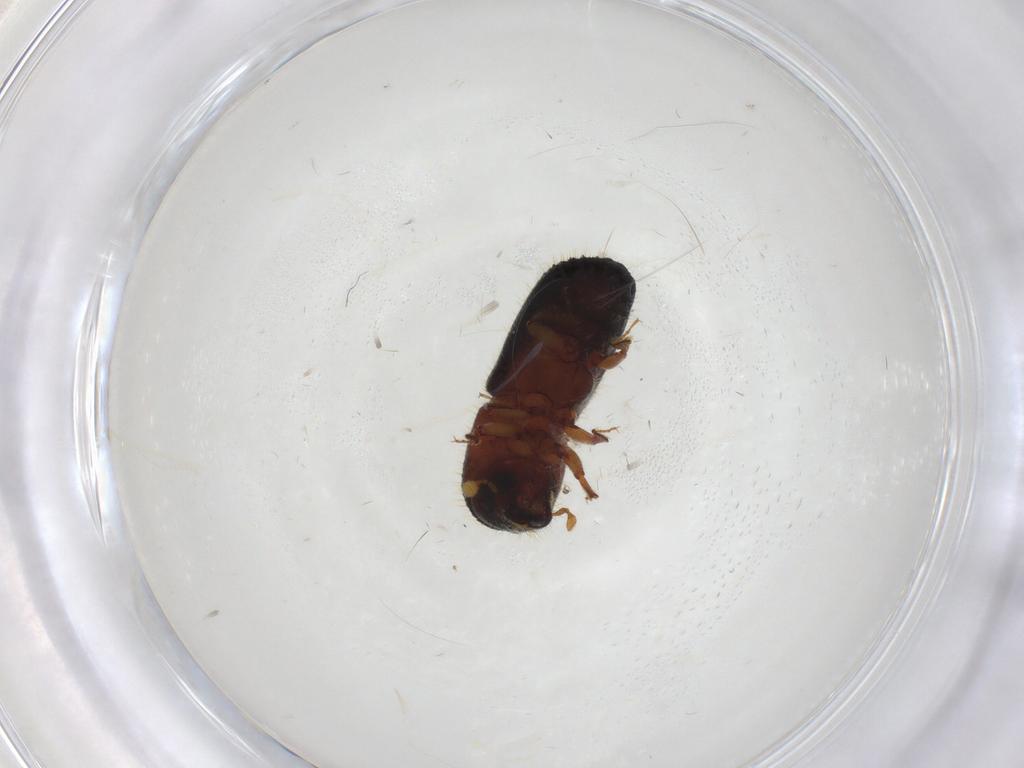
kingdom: Animalia
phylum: Arthropoda
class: Insecta
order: Coleoptera
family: Curculionidae
